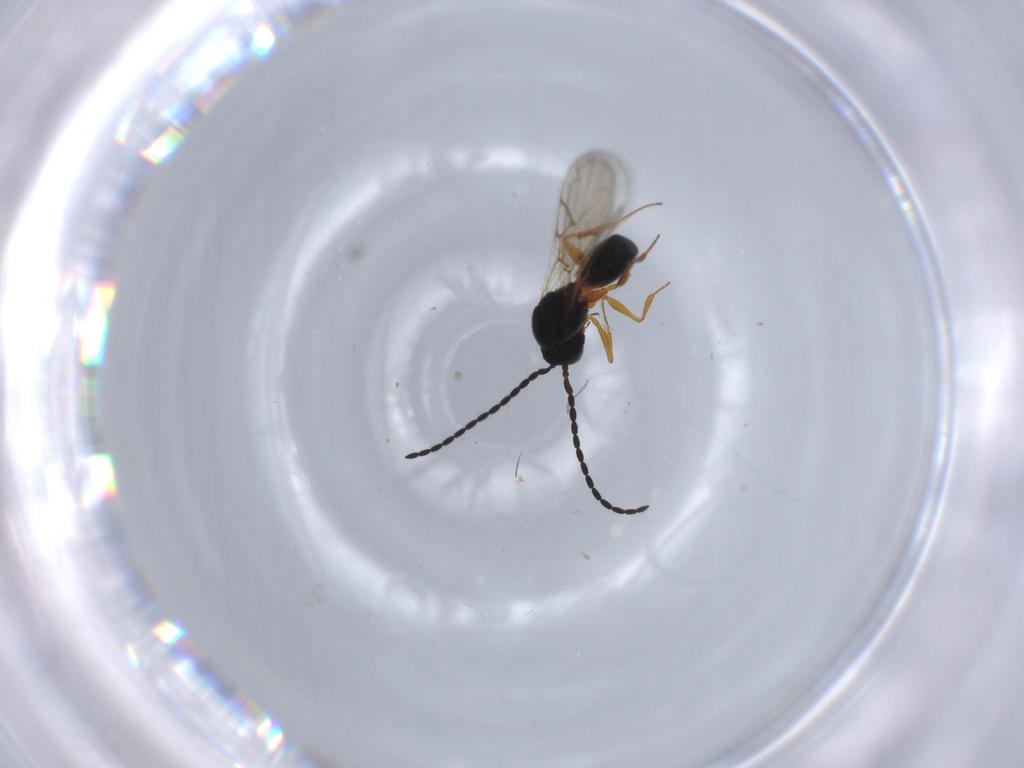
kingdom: Animalia
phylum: Arthropoda
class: Insecta
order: Hymenoptera
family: Figitidae
